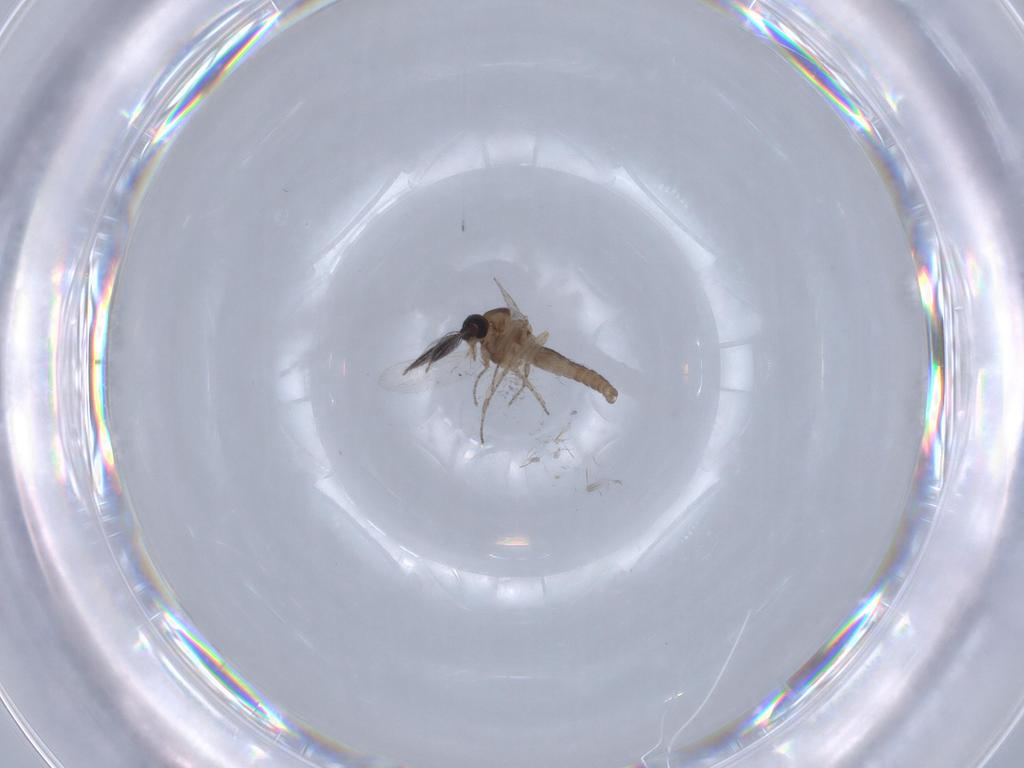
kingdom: Animalia
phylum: Arthropoda
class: Insecta
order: Diptera
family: Ceratopogonidae
